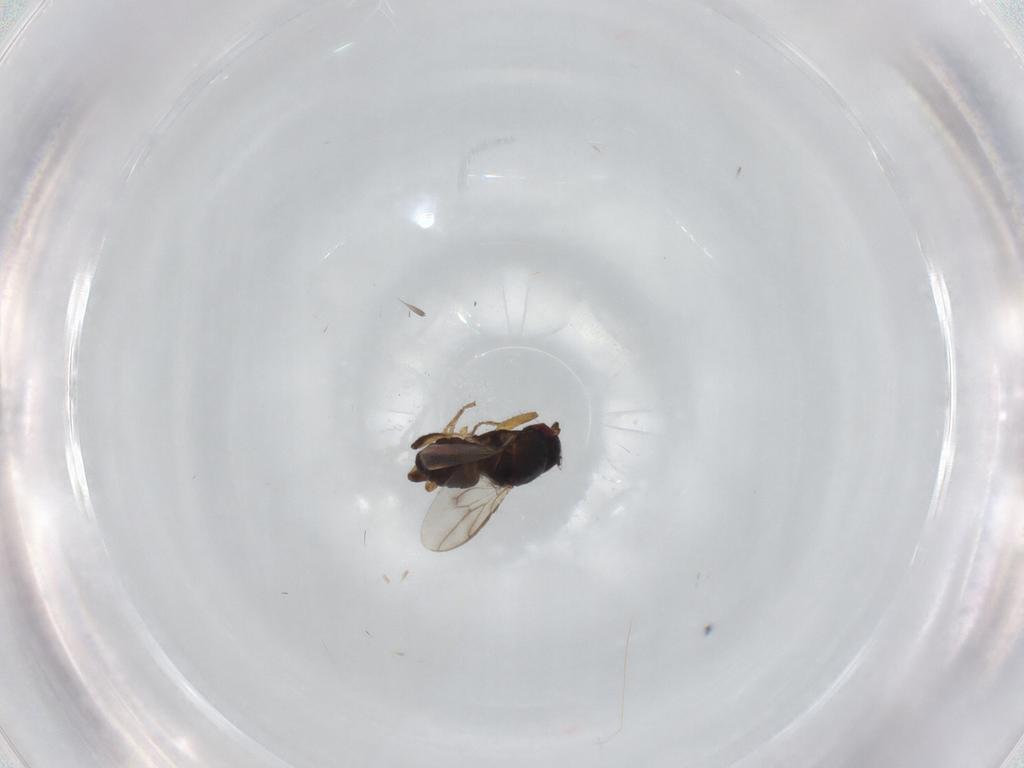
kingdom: Animalia
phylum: Arthropoda
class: Insecta
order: Diptera
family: Sphaeroceridae
